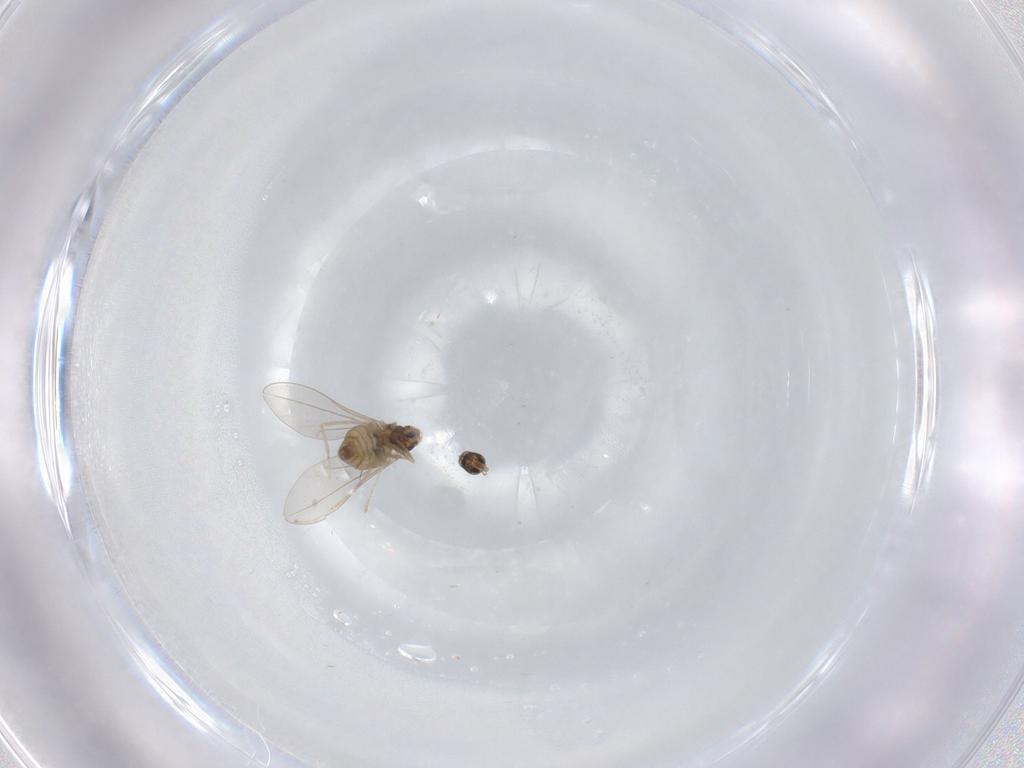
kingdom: Animalia
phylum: Arthropoda
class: Insecta
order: Diptera
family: Cecidomyiidae
